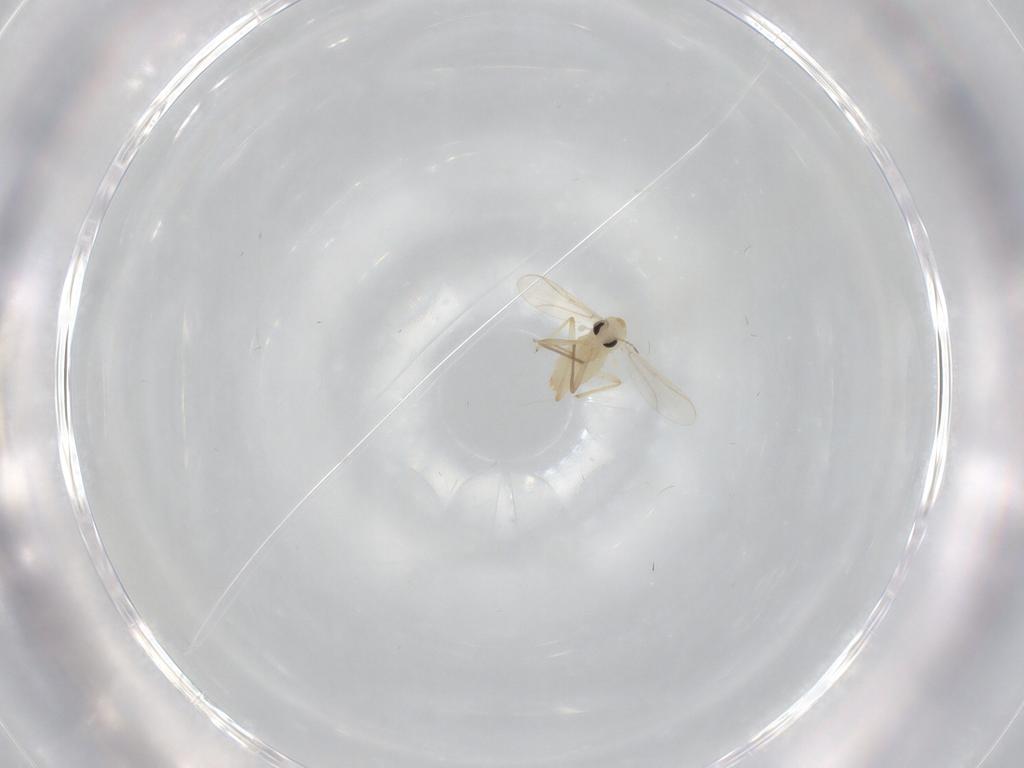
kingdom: Animalia
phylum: Arthropoda
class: Insecta
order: Diptera
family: Chironomidae
